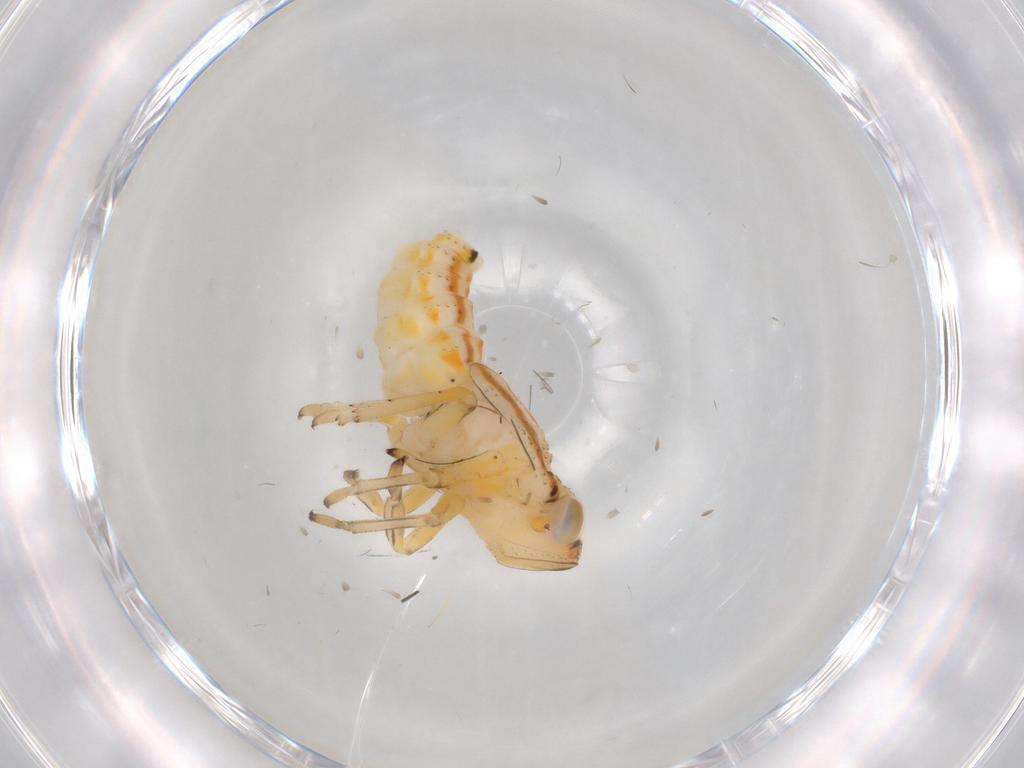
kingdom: Animalia
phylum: Arthropoda
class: Insecta
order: Hemiptera
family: Issidae
